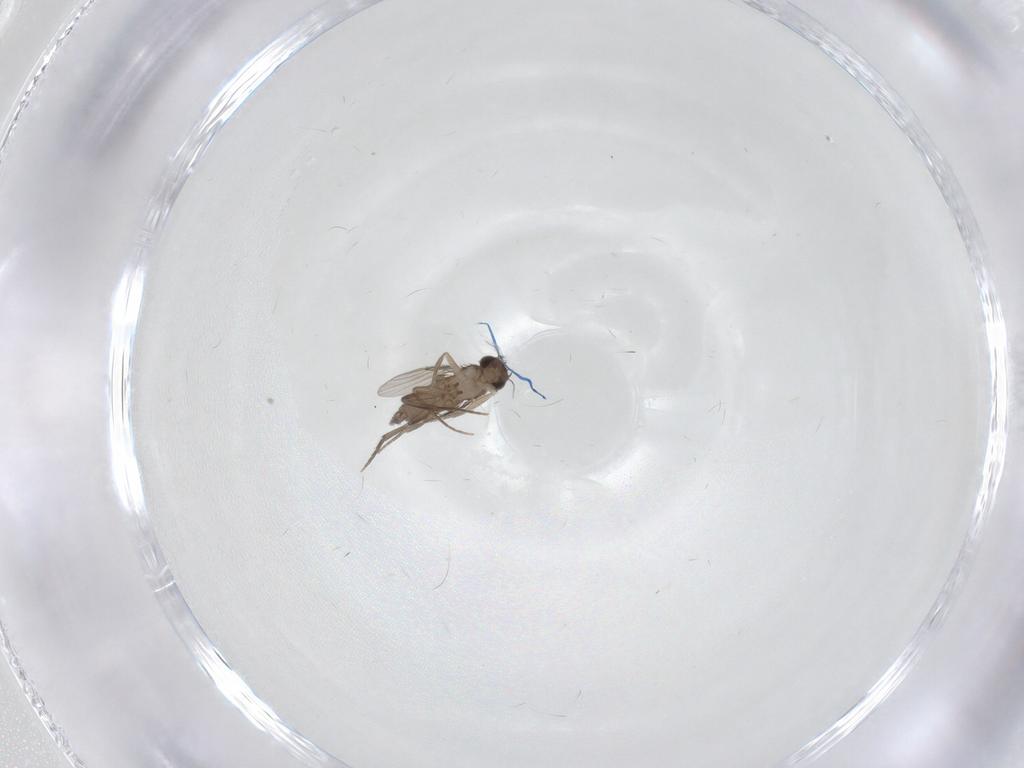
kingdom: Animalia
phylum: Arthropoda
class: Insecta
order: Diptera
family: Phoridae
